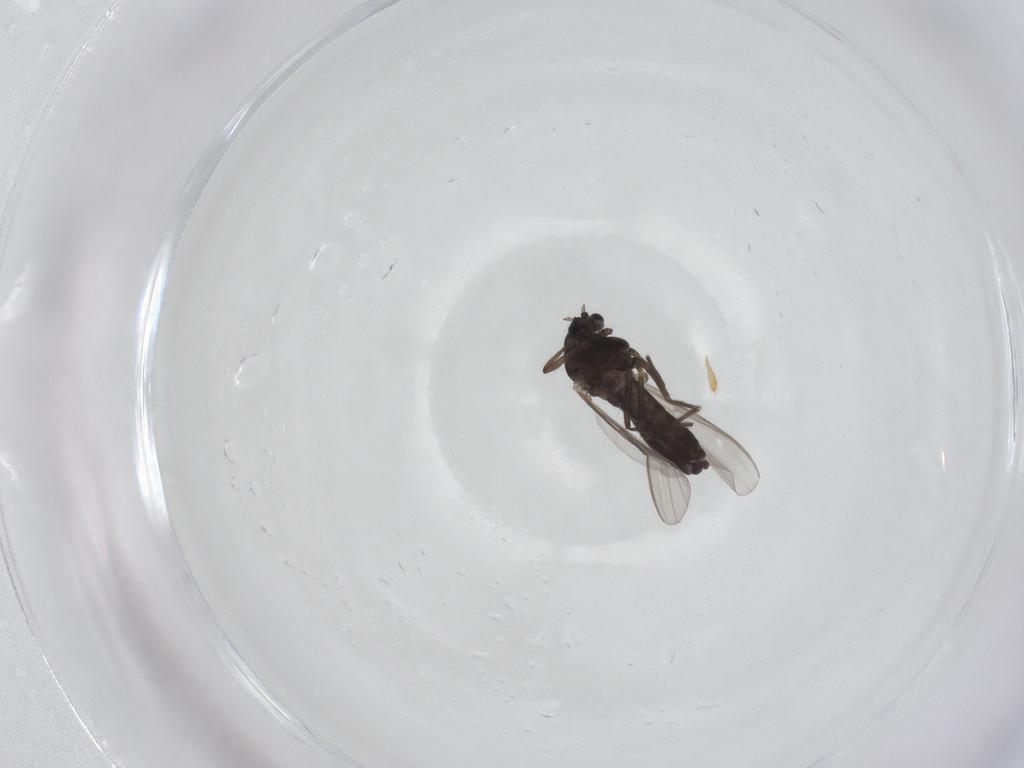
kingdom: Animalia
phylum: Arthropoda
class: Insecta
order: Diptera
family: Chironomidae
